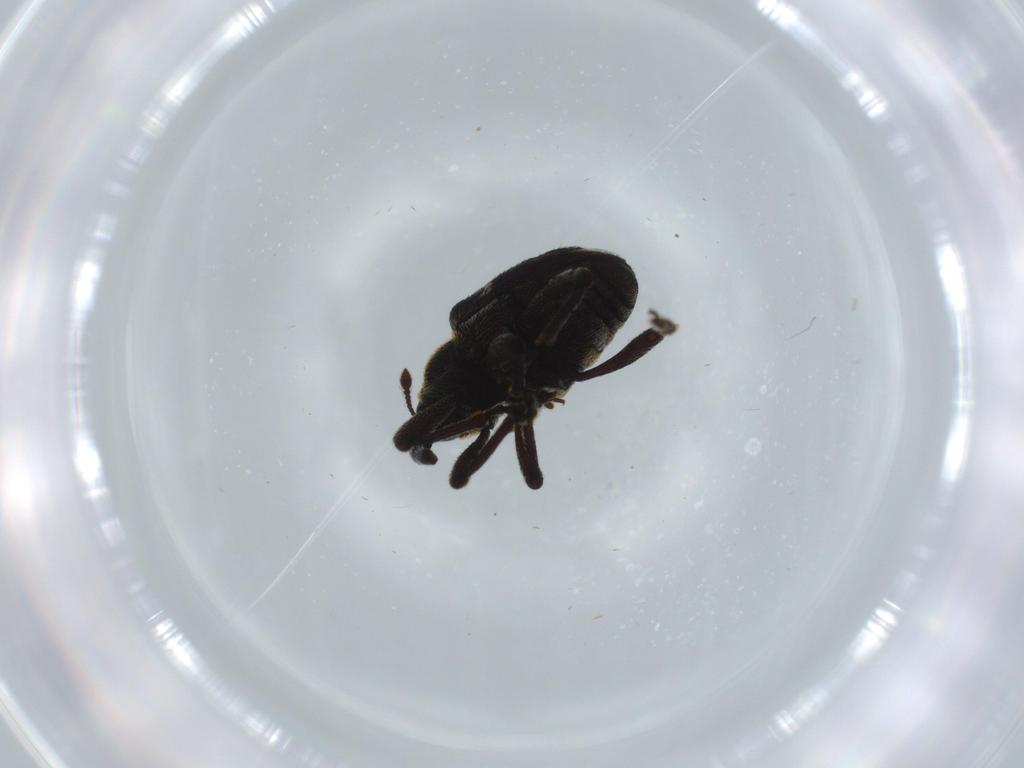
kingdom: Animalia
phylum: Arthropoda
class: Insecta
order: Coleoptera
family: Curculionidae
